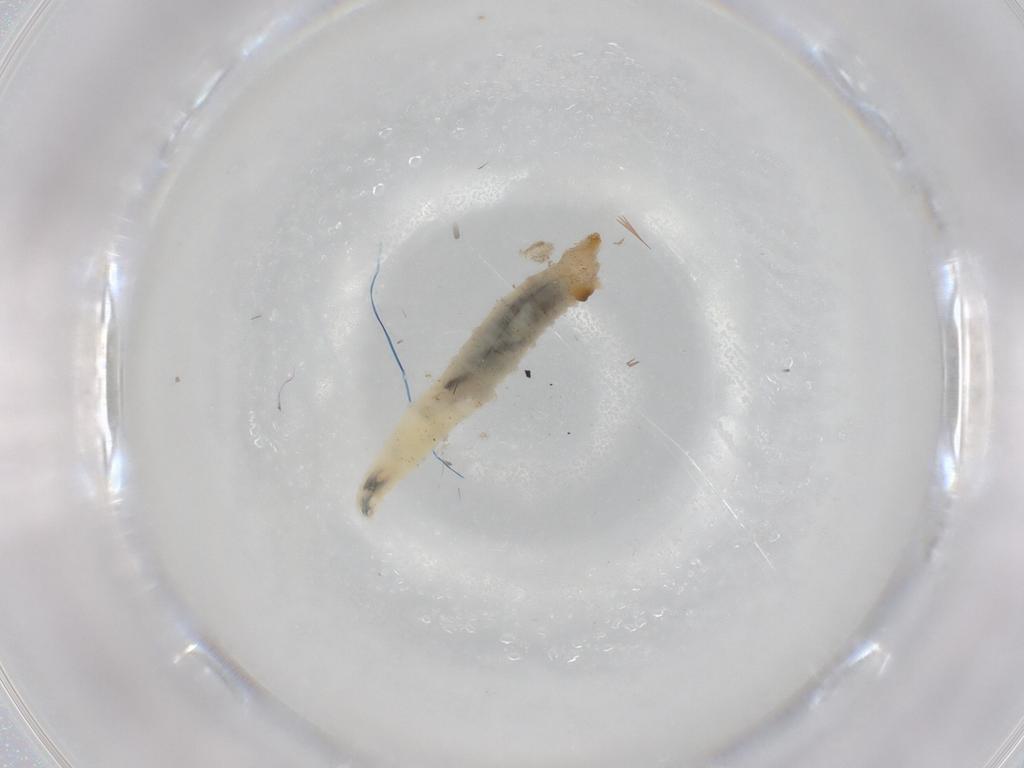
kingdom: Animalia
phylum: Arthropoda
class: Insecta
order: Diptera
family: Drosophilidae
